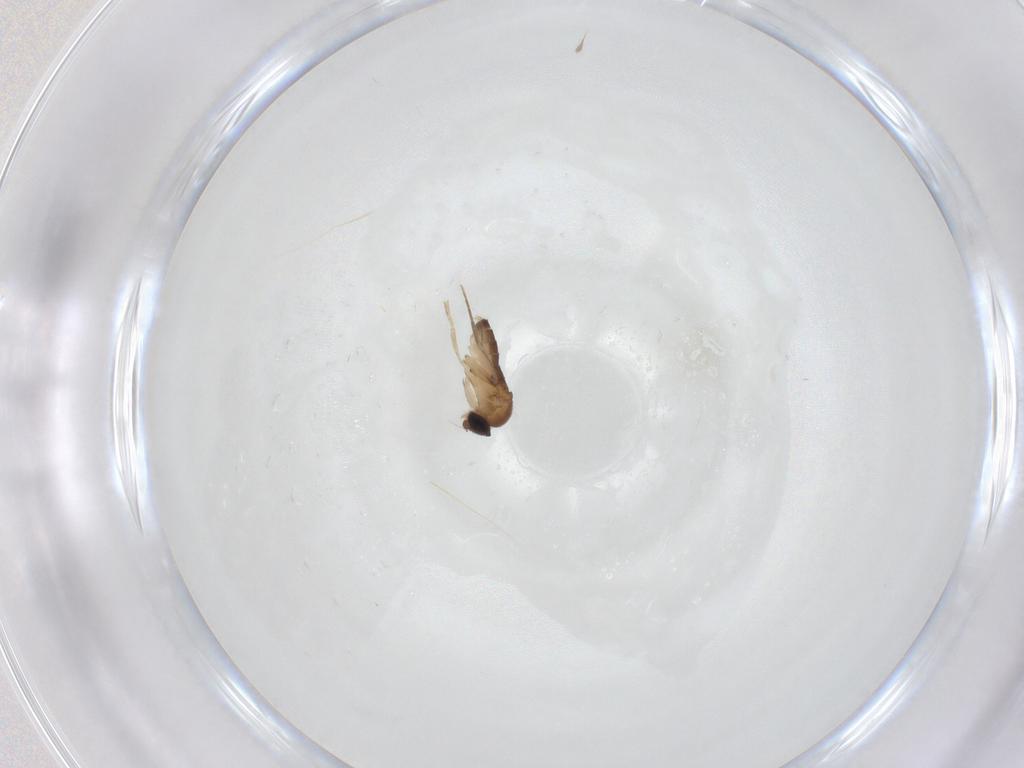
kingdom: Animalia
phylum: Arthropoda
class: Insecta
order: Diptera
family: Phoridae
